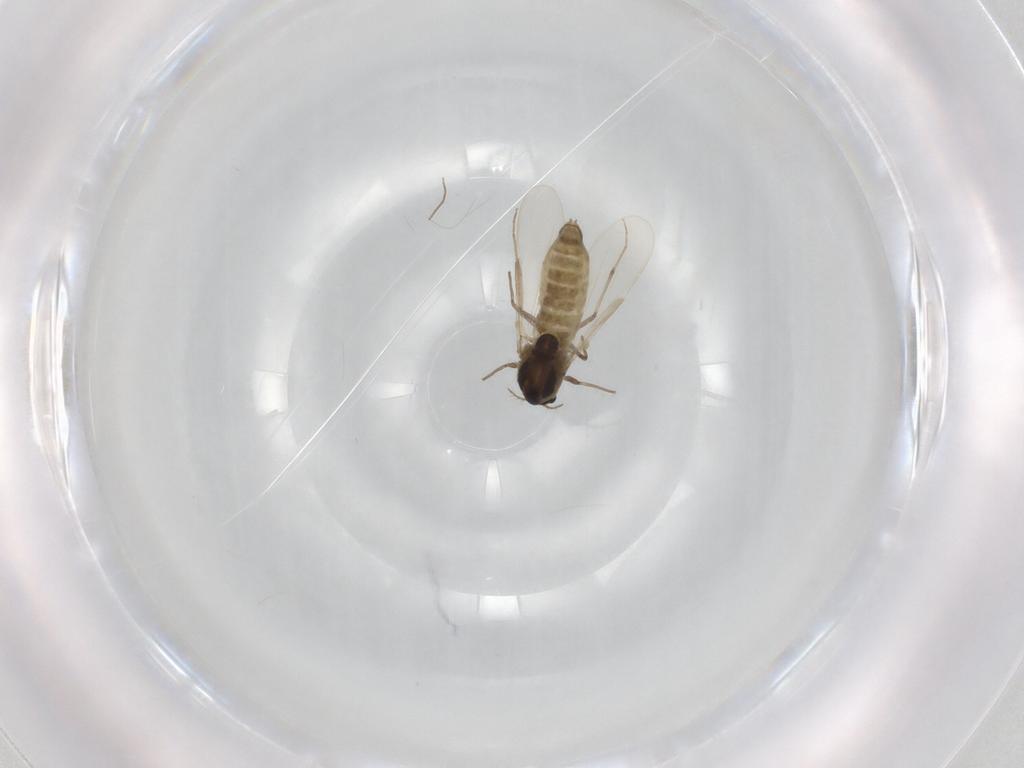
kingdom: Animalia
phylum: Arthropoda
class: Insecta
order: Diptera
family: Chironomidae
